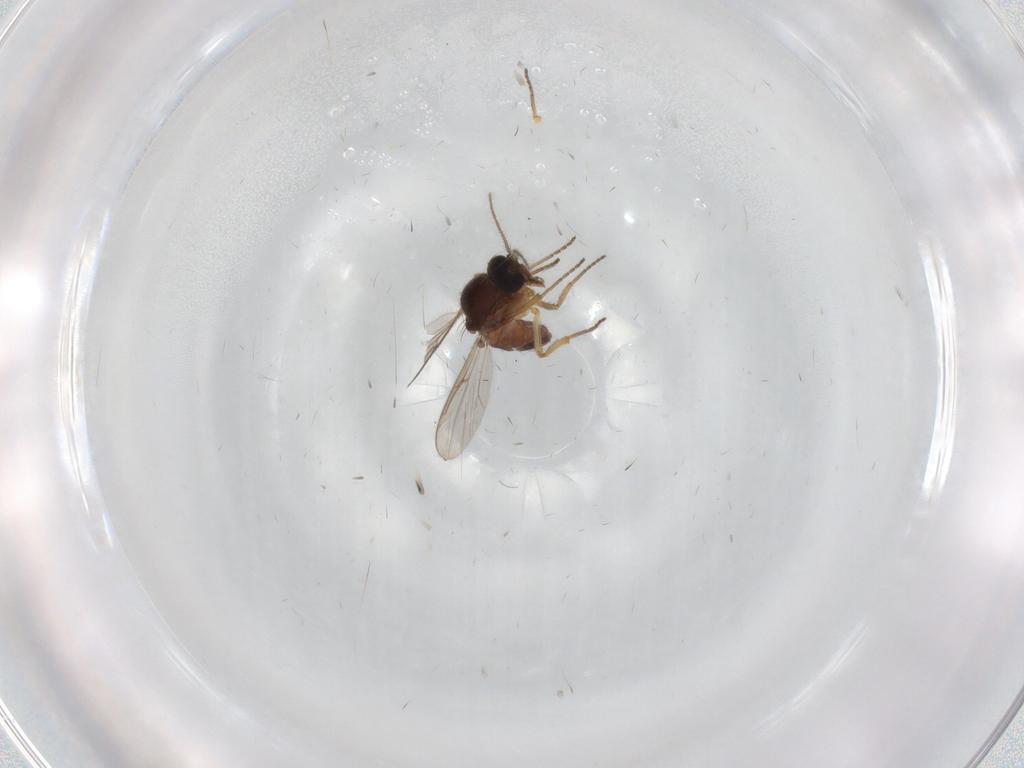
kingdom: Animalia
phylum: Arthropoda
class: Insecta
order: Diptera
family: Ceratopogonidae
